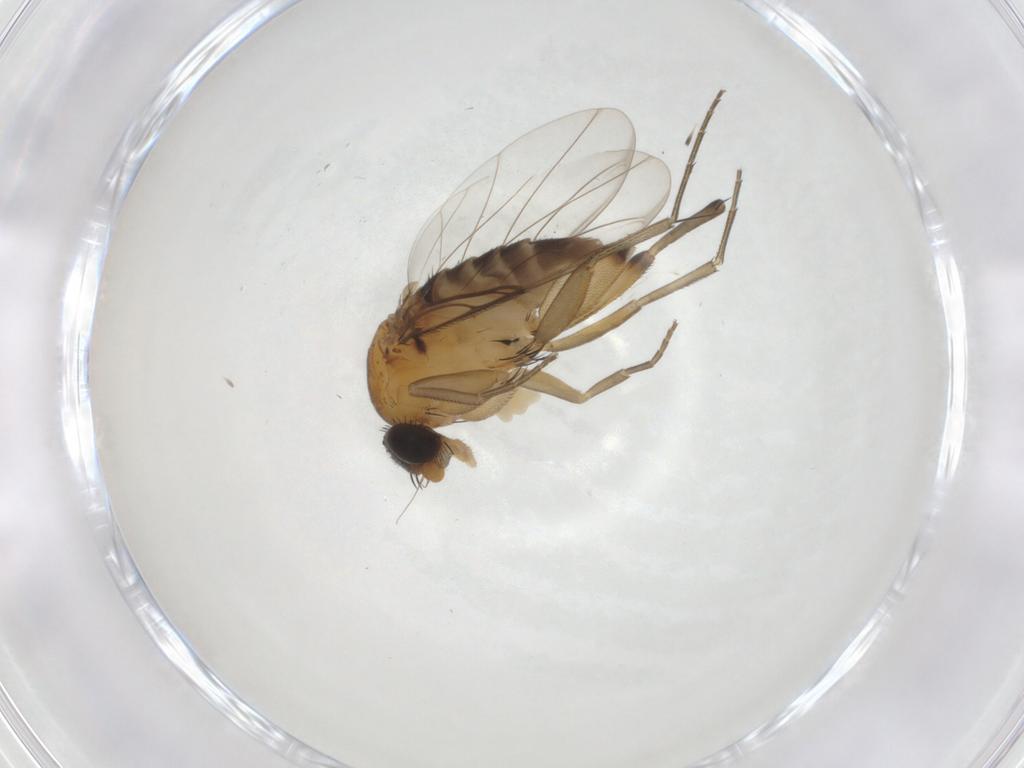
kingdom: Animalia
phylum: Arthropoda
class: Insecta
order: Diptera
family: Phoridae
